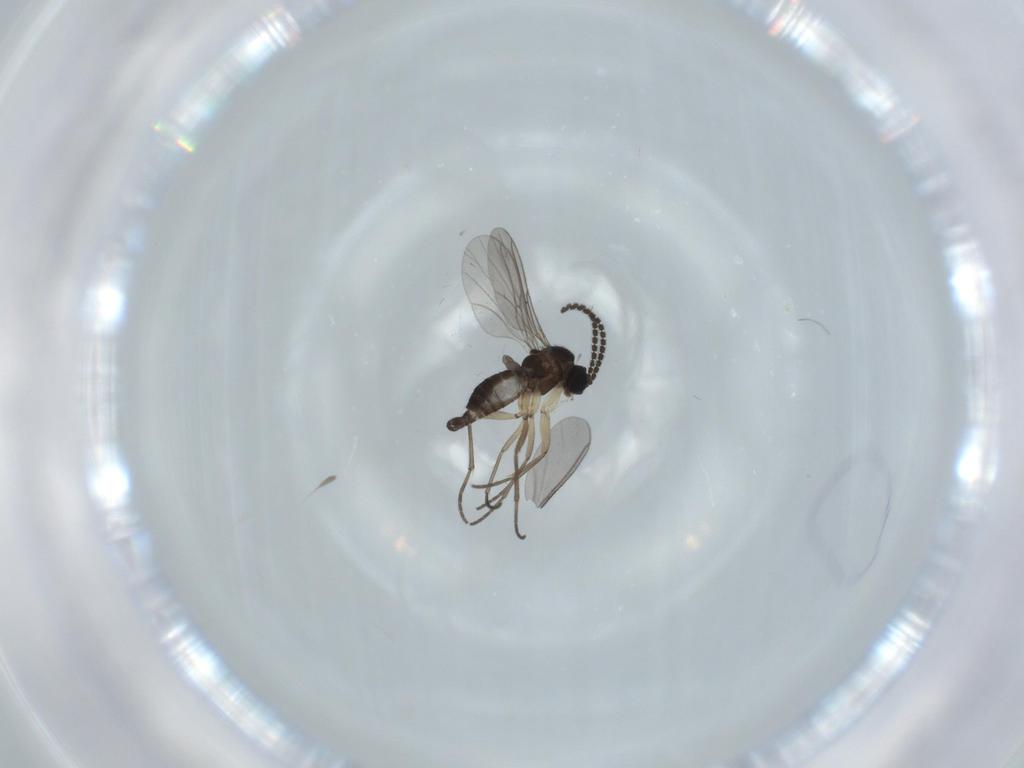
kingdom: Animalia
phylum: Arthropoda
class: Insecta
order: Diptera
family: Sciaridae
